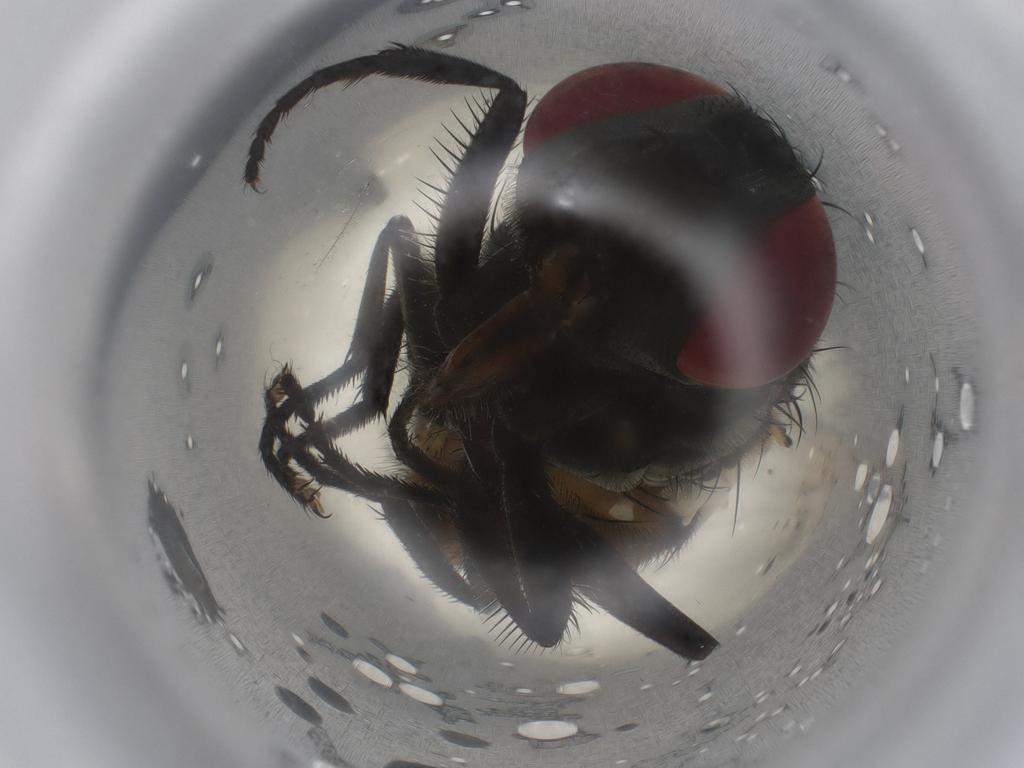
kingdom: Animalia
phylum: Arthropoda
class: Insecta
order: Diptera
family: Muscidae
